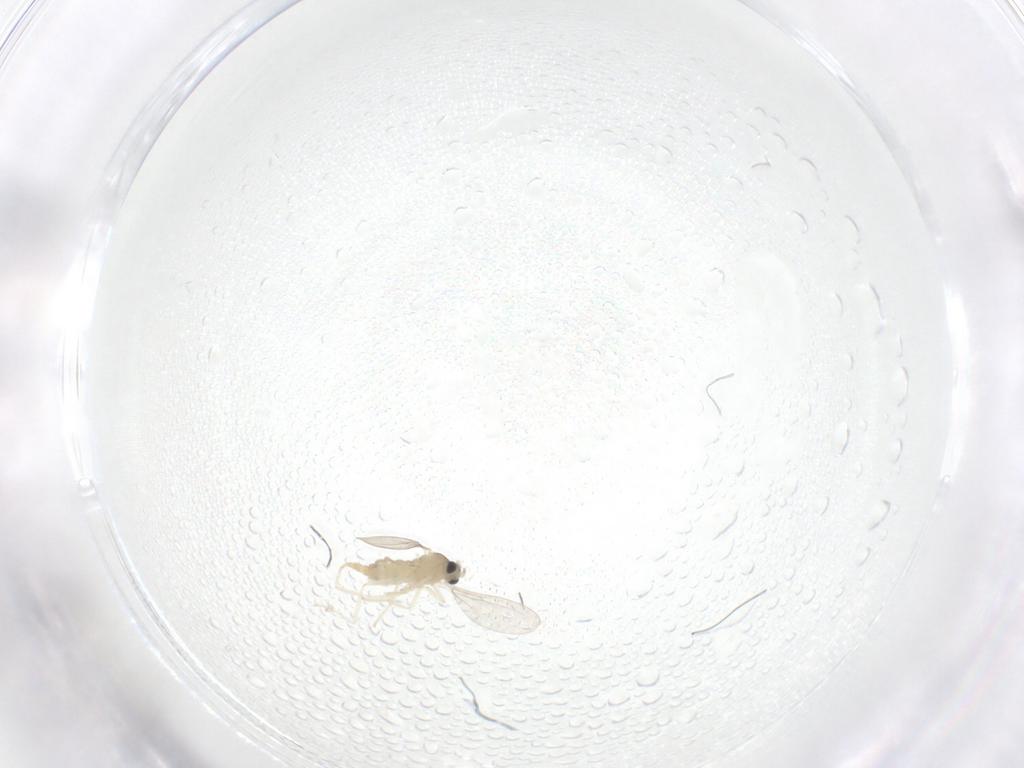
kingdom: Animalia
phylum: Arthropoda
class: Insecta
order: Diptera
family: Cecidomyiidae
